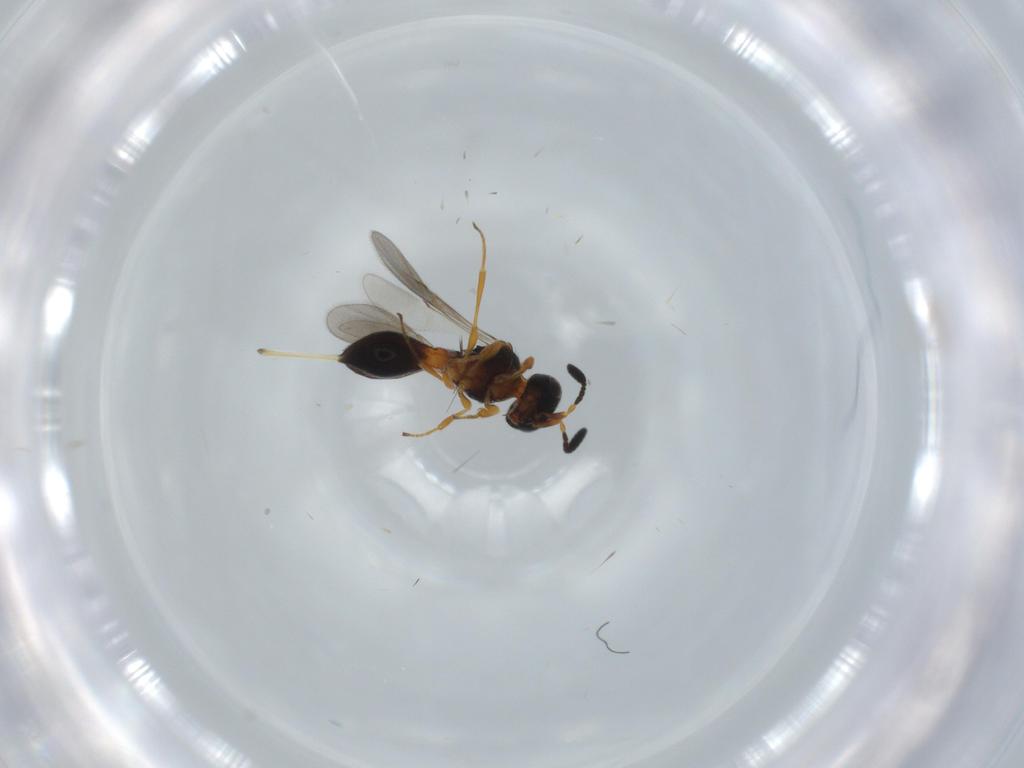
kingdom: Animalia
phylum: Arthropoda
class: Insecta
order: Hymenoptera
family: Scelionidae
